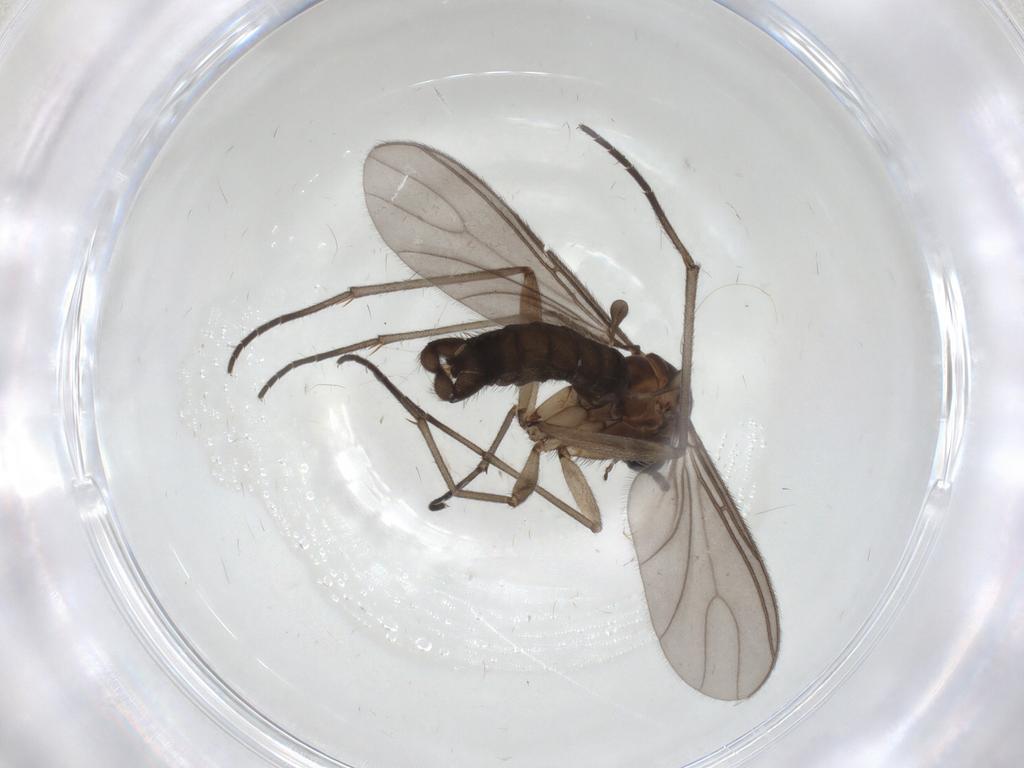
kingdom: Animalia
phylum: Arthropoda
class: Insecta
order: Diptera
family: Sciaridae
